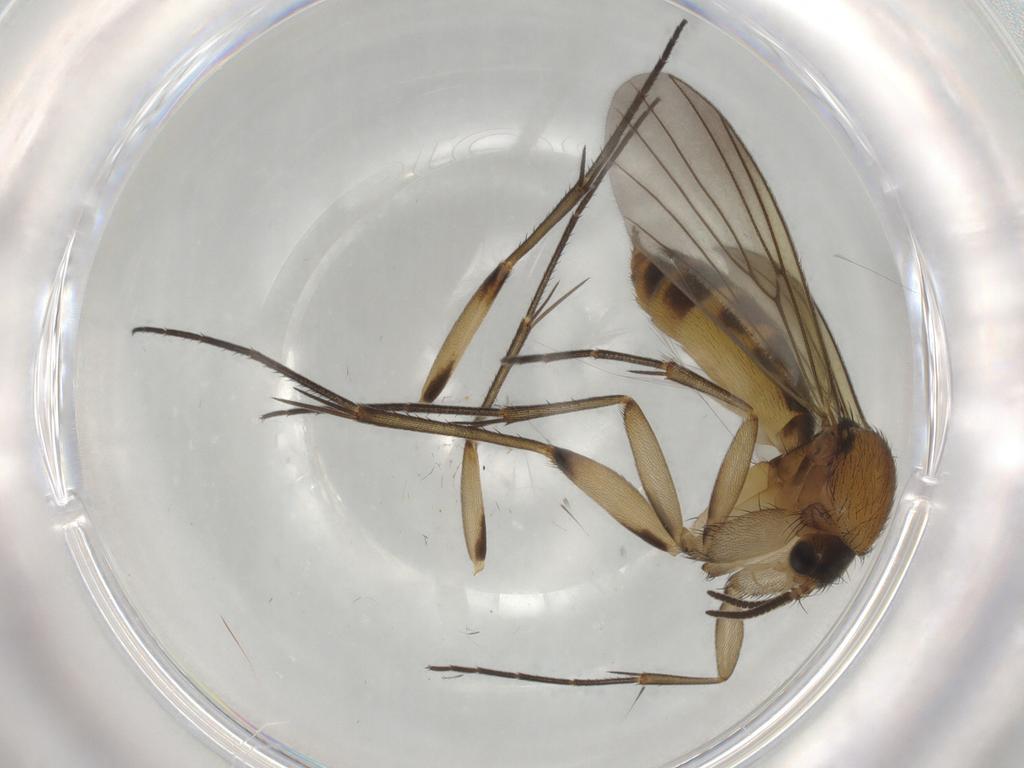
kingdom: Animalia
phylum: Arthropoda
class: Insecta
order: Diptera
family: Mycetophilidae
